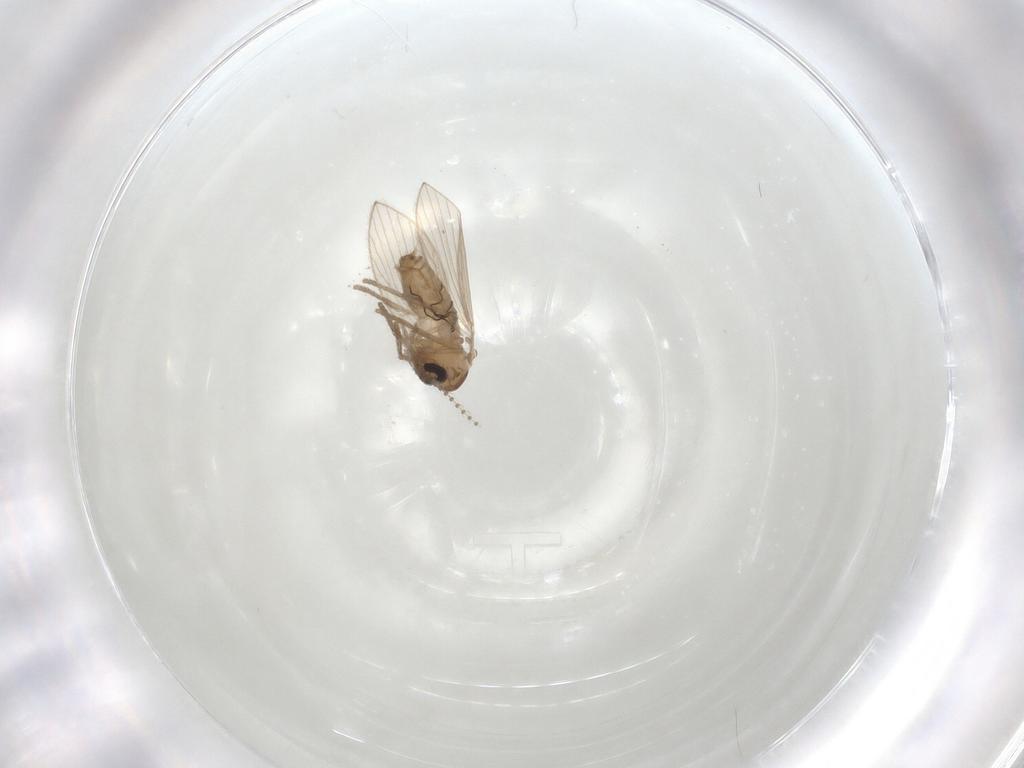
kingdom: Animalia
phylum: Arthropoda
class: Insecta
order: Diptera
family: Psychodidae
